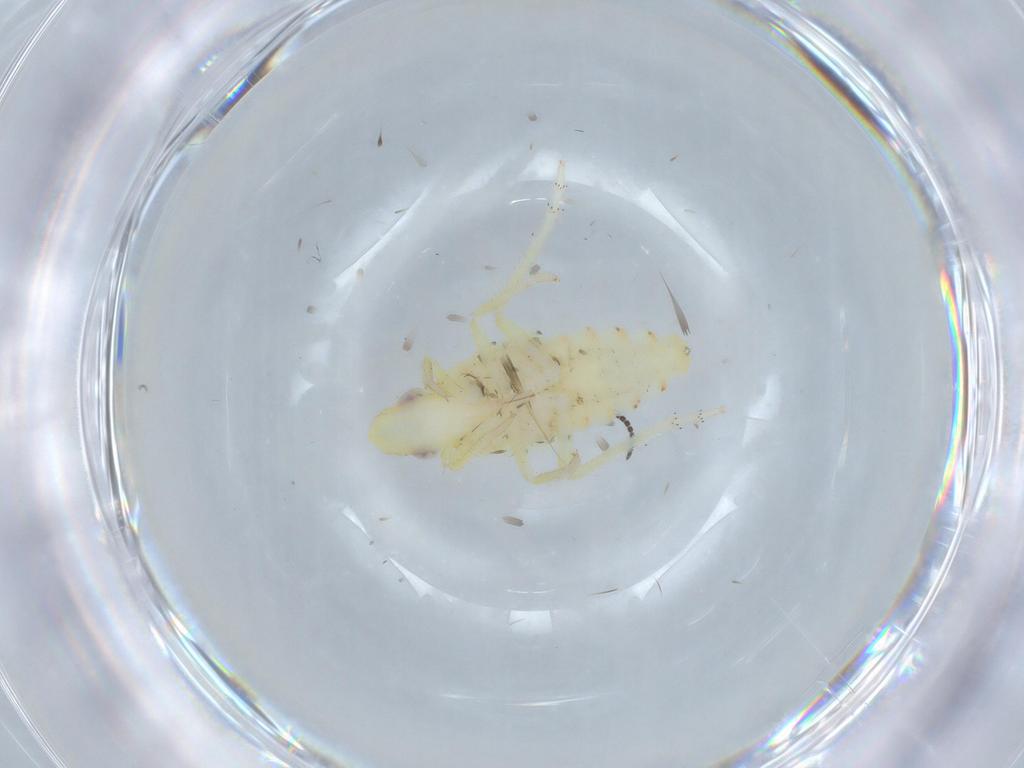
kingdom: Animalia
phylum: Arthropoda
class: Insecta
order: Hemiptera
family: Tropiduchidae
